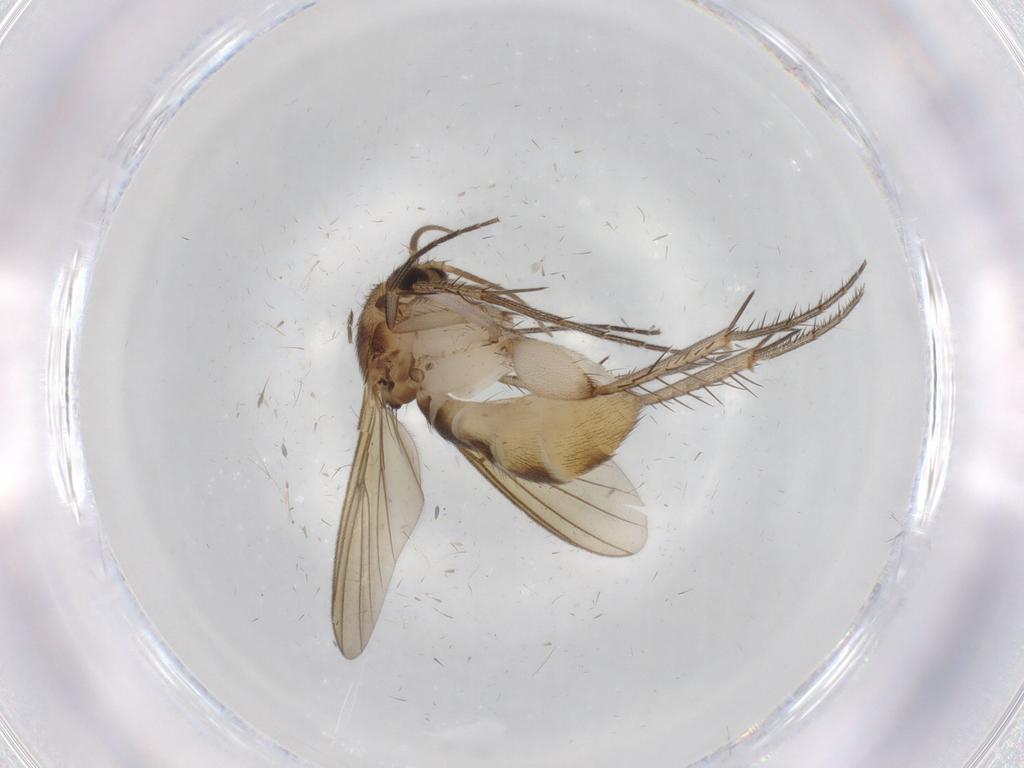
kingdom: Animalia
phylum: Arthropoda
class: Insecta
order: Diptera
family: Mycetophilidae
